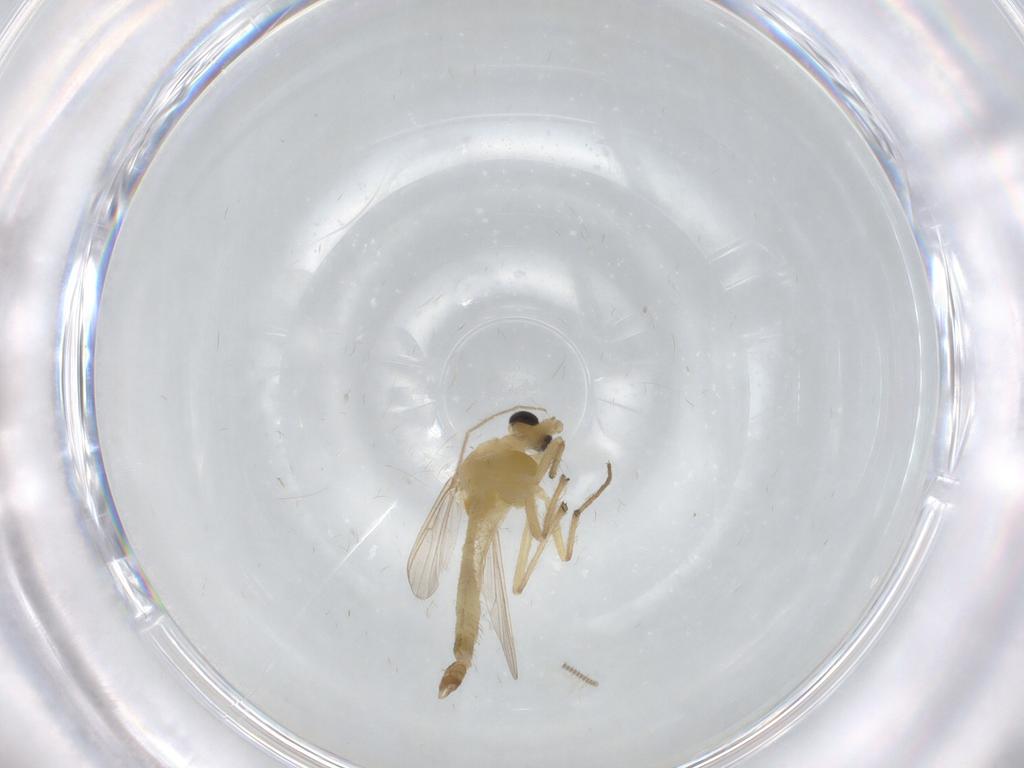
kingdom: Animalia
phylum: Arthropoda
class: Insecta
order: Diptera
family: Chironomidae
